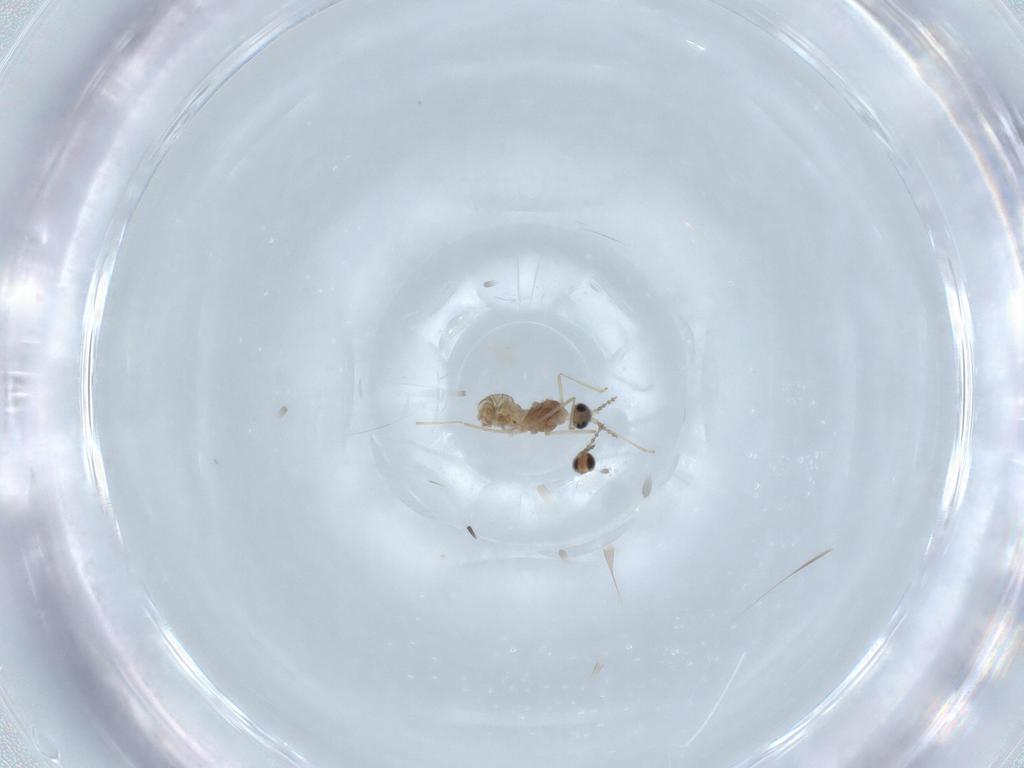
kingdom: Animalia
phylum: Arthropoda
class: Insecta
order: Diptera
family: Cecidomyiidae
